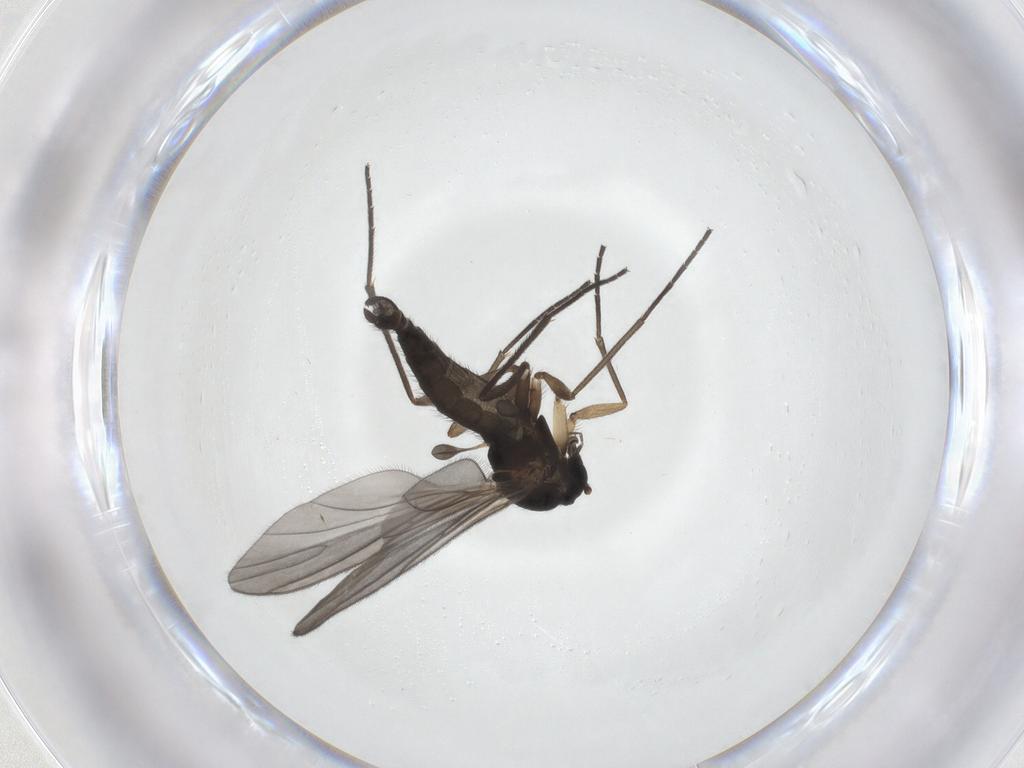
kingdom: Animalia
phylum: Arthropoda
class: Insecta
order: Diptera
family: Sciaridae
